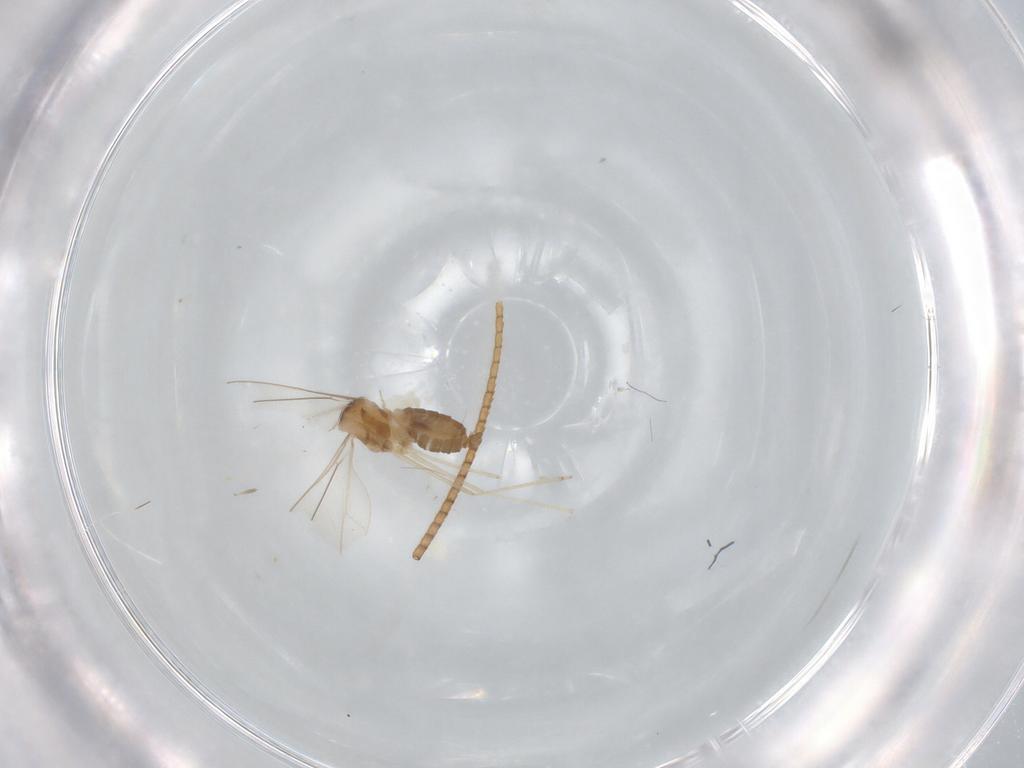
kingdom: Animalia
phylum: Arthropoda
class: Insecta
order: Diptera
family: Cecidomyiidae
